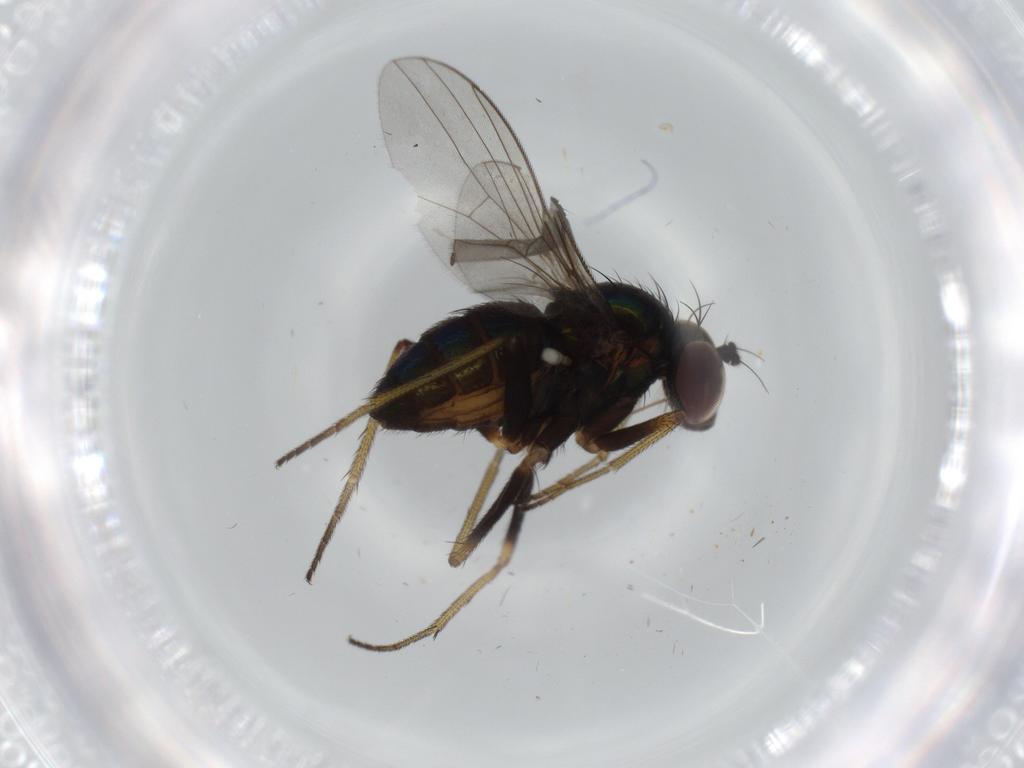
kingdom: Animalia
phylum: Arthropoda
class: Insecta
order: Diptera
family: Dolichopodidae
